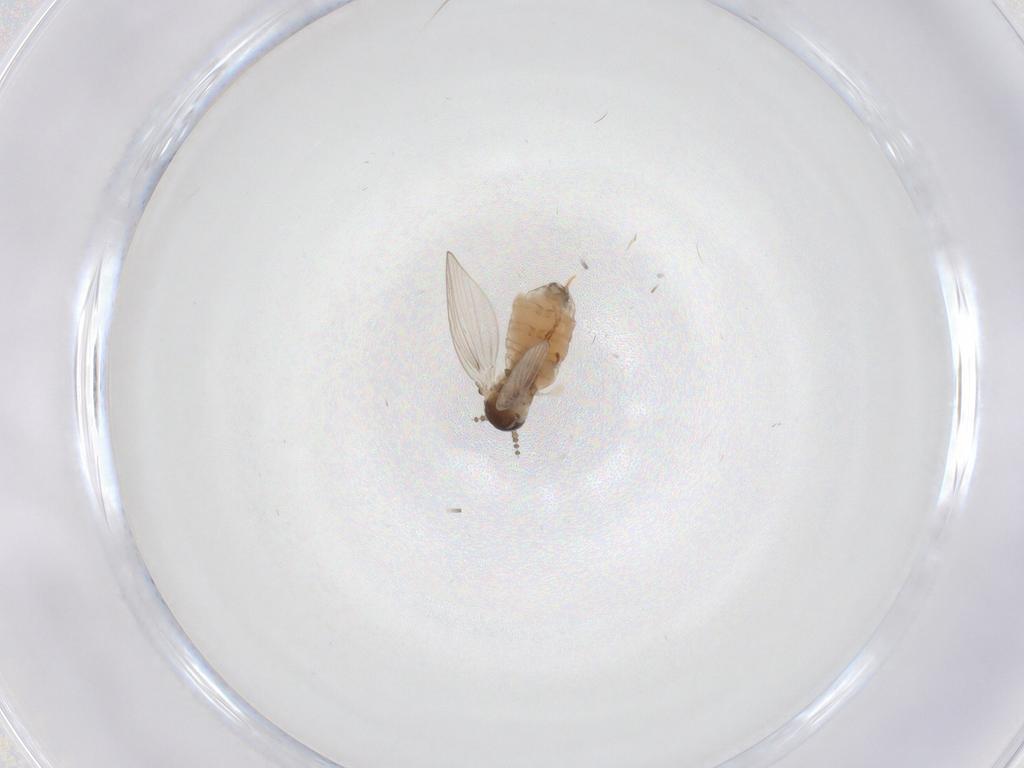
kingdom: Animalia
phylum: Arthropoda
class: Insecta
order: Diptera
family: Psychodidae
